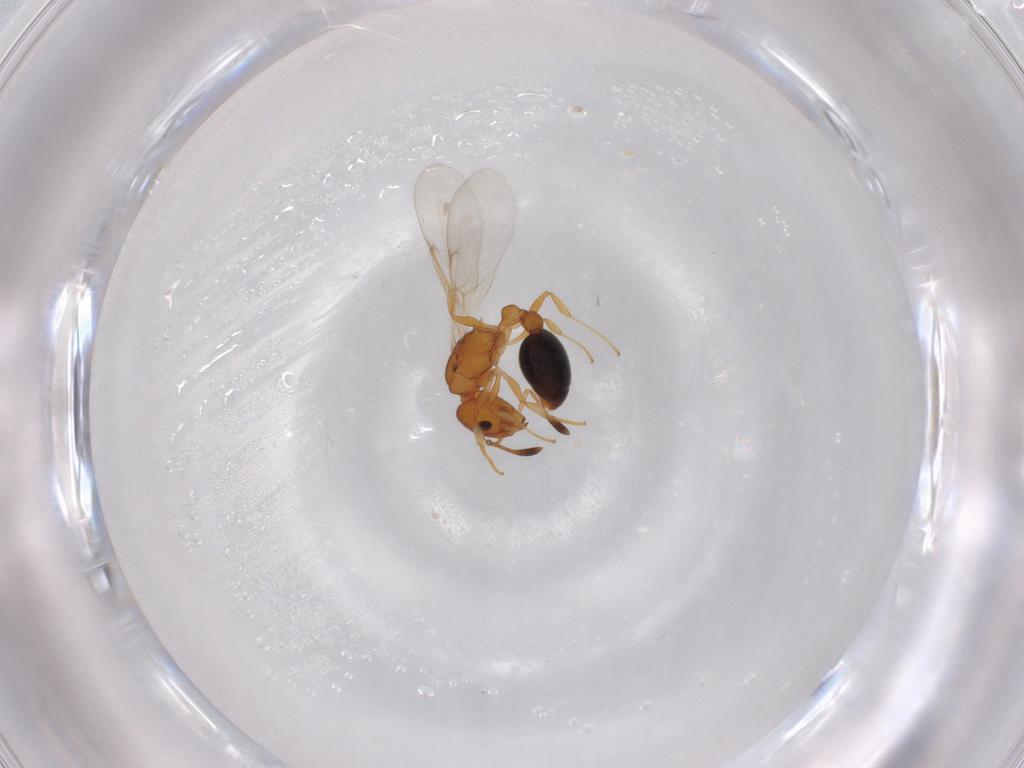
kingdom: Animalia
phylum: Arthropoda
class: Insecta
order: Hymenoptera
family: Formicidae
